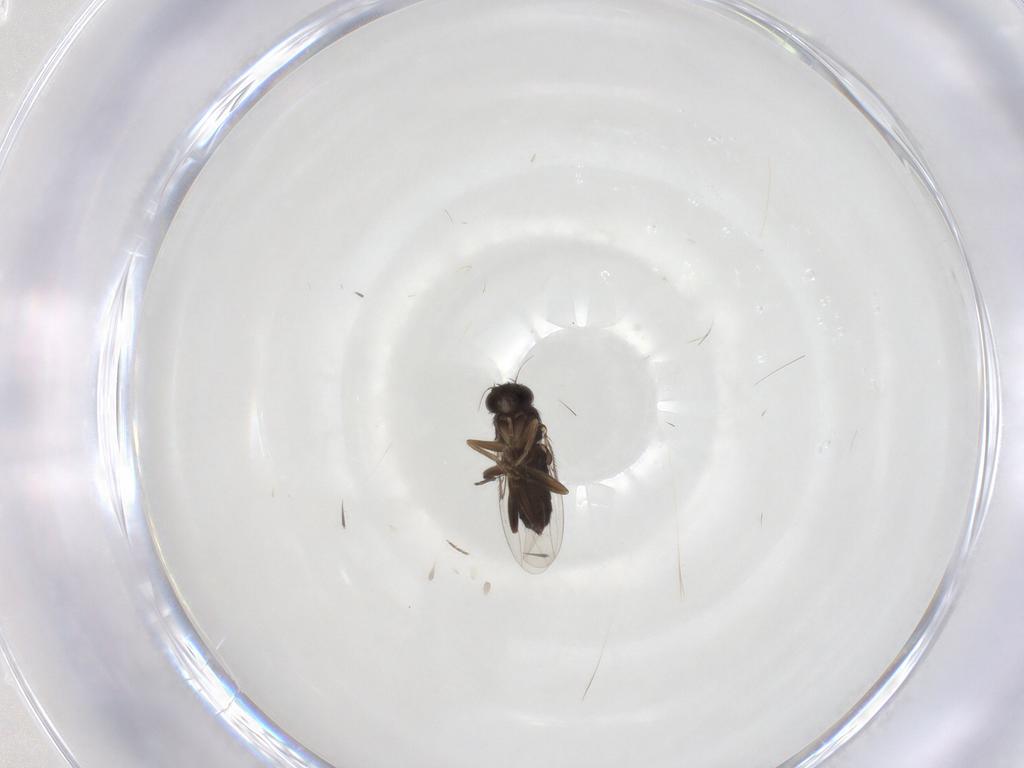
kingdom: Animalia
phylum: Arthropoda
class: Insecta
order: Diptera
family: Phoridae
